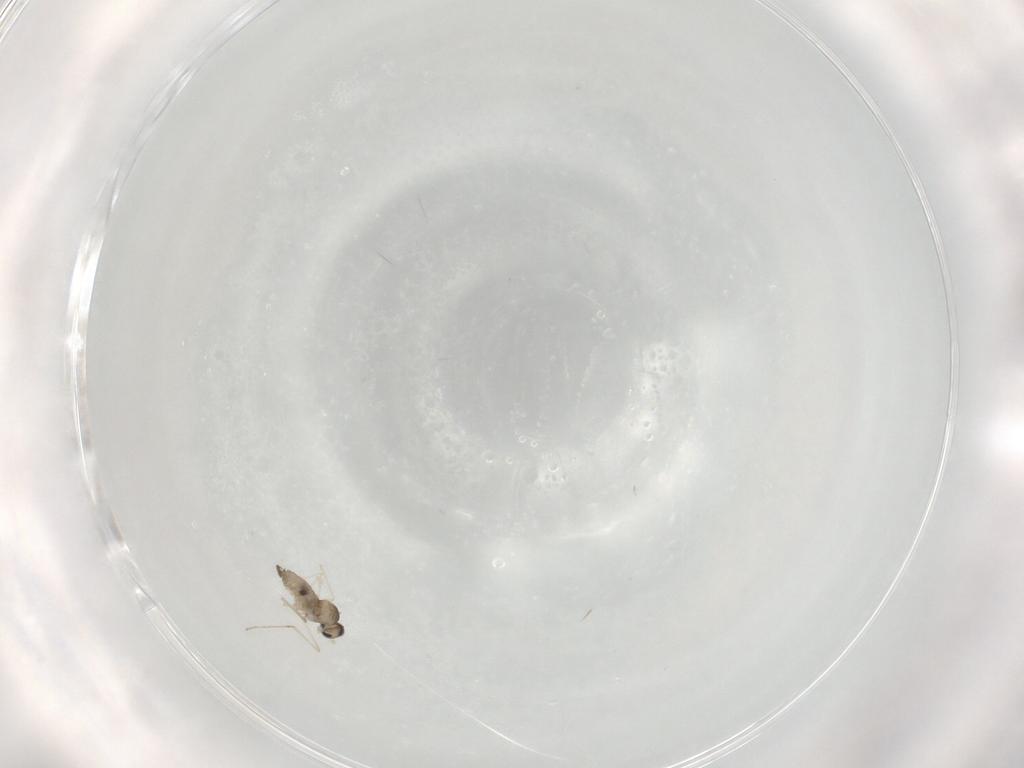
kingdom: Animalia
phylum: Arthropoda
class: Insecta
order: Diptera
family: Cecidomyiidae
